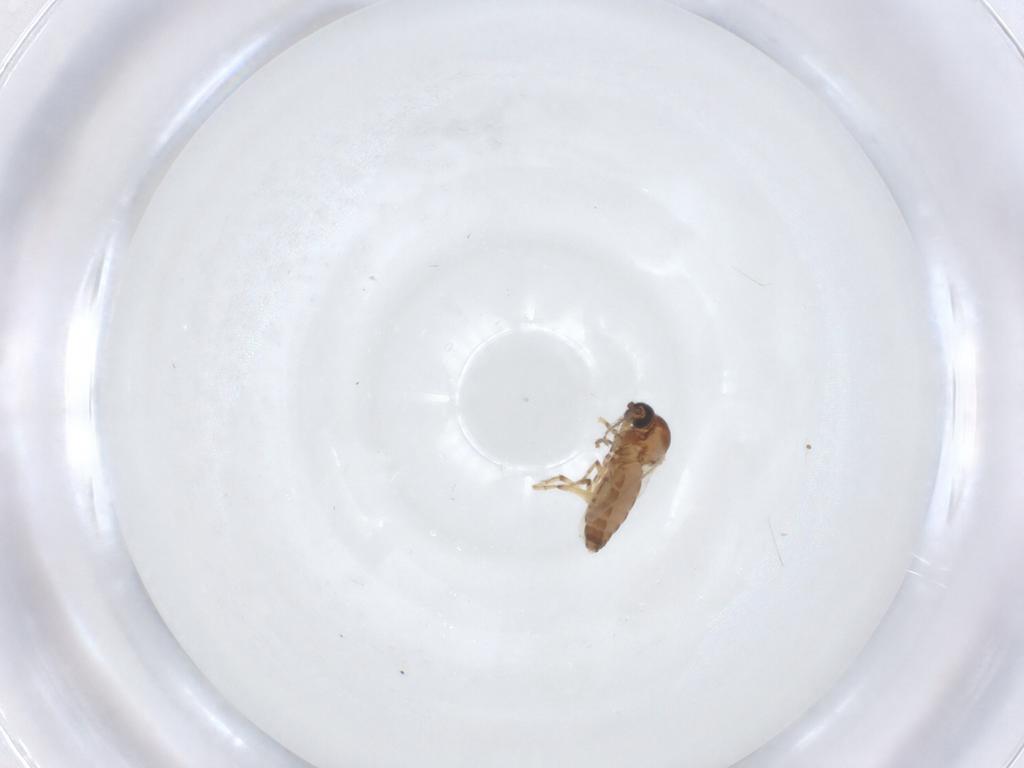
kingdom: Animalia
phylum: Arthropoda
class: Insecta
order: Diptera
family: Ceratopogonidae
